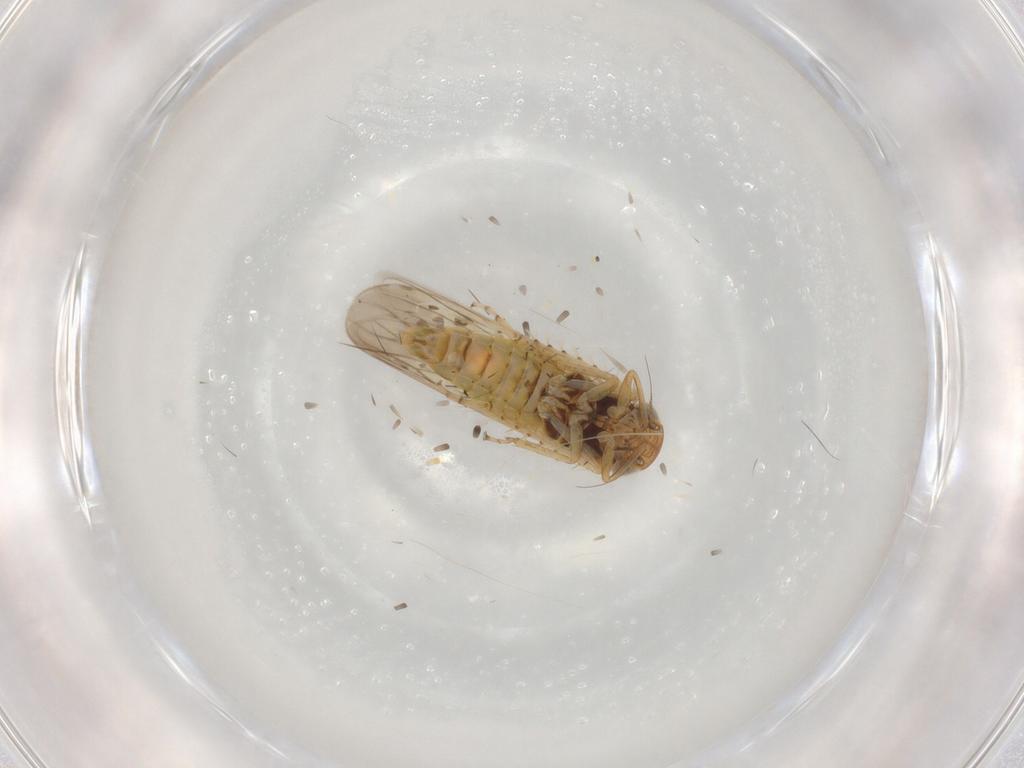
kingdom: Animalia
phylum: Arthropoda
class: Insecta
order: Hemiptera
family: Cicadellidae
